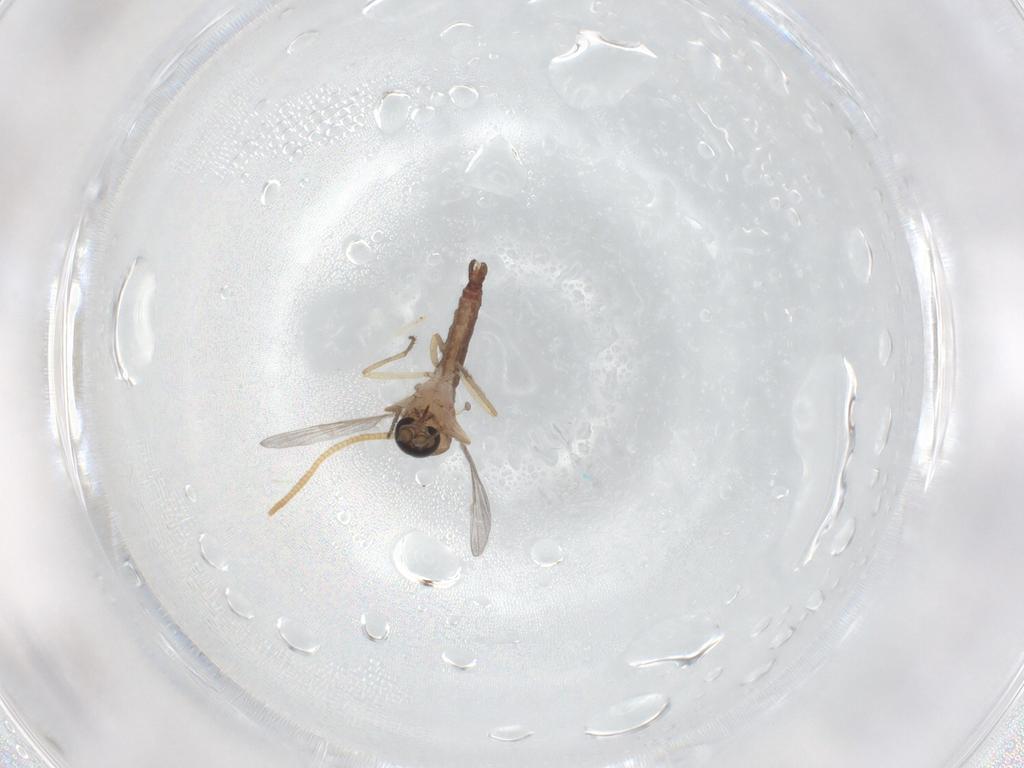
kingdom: Animalia
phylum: Arthropoda
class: Insecta
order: Diptera
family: Ceratopogonidae
